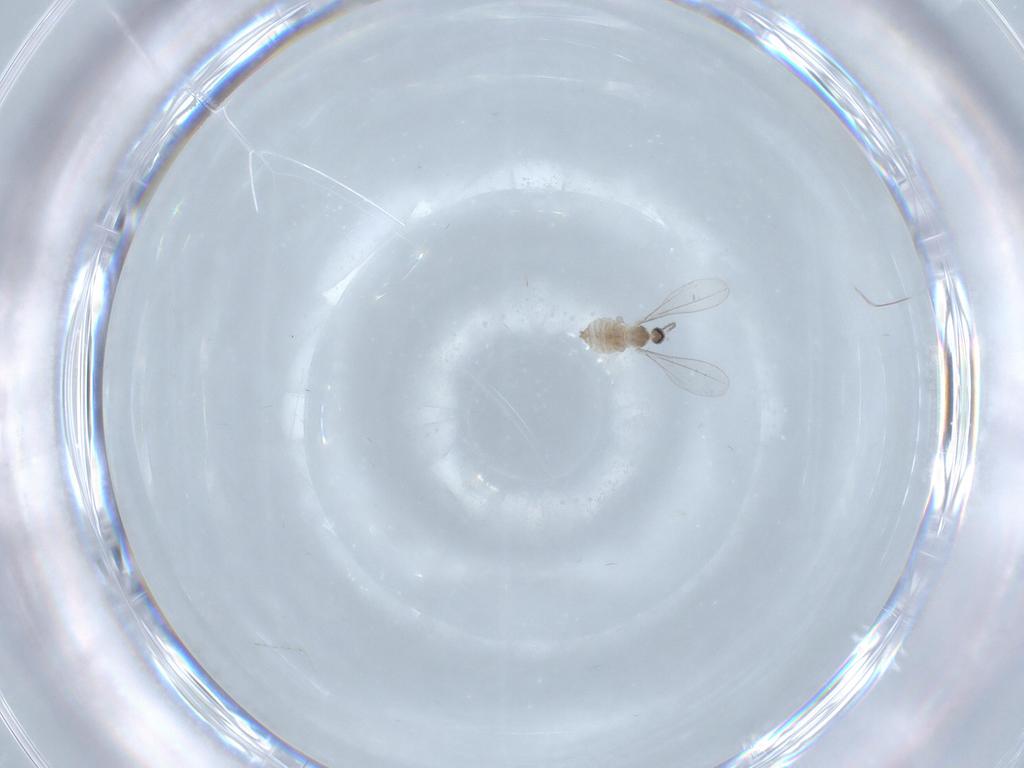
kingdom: Animalia
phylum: Arthropoda
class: Insecta
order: Diptera
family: Cecidomyiidae
